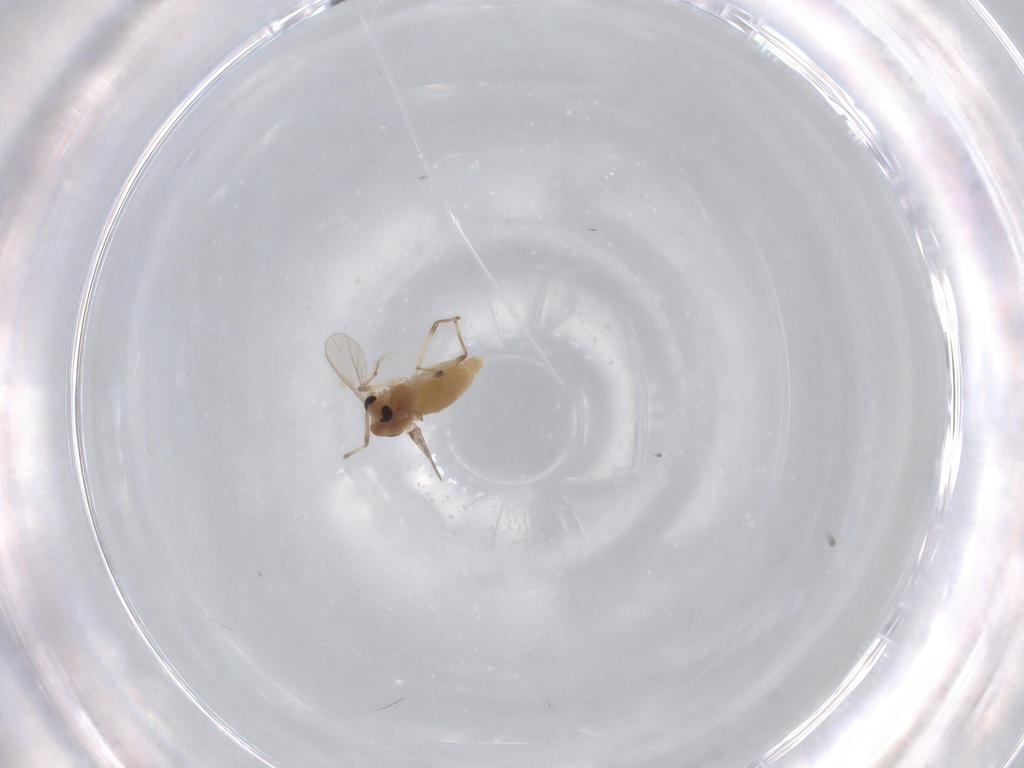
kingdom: Animalia
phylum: Arthropoda
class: Insecta
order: Diptera
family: Chironomidae
